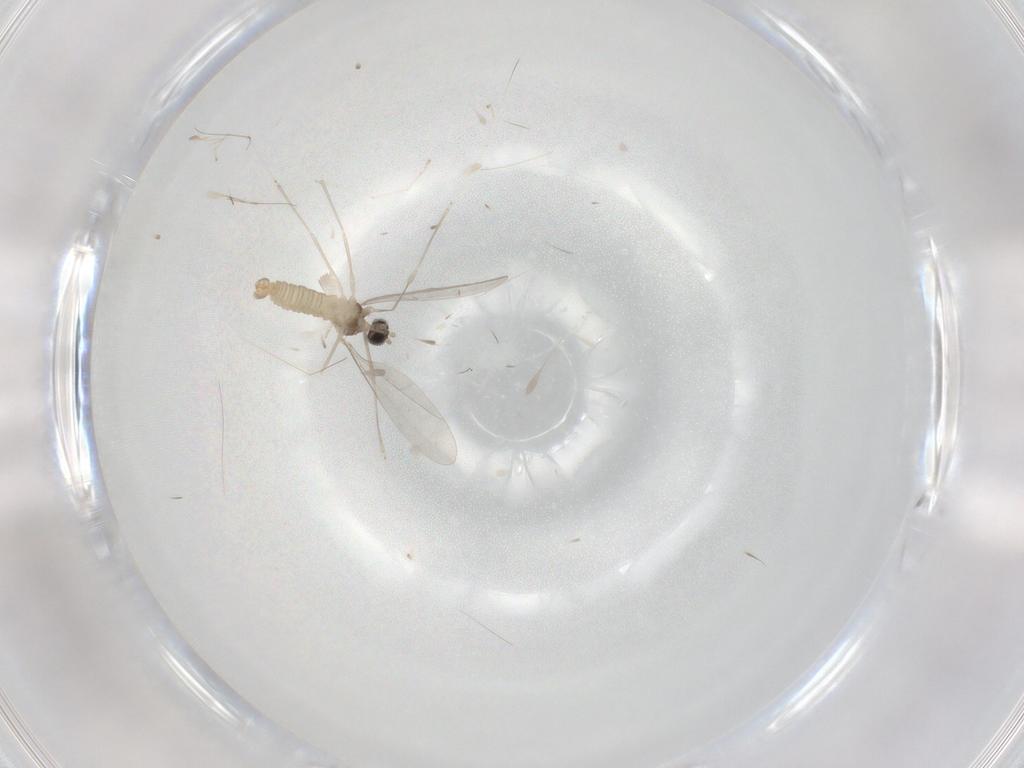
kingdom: Animalia
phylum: Arthropoda
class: Insecta
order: Diptera
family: Cecidomyiidae
